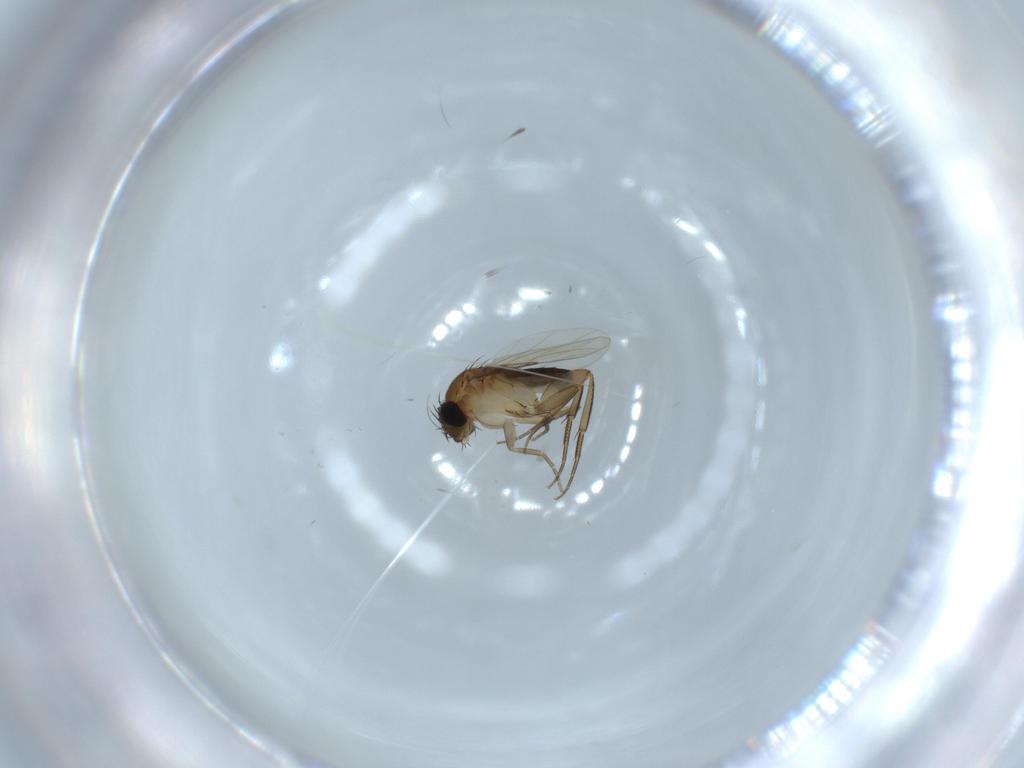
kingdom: Animalia
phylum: Arthropoda
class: Insecta
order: Diptera
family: Phoridae
